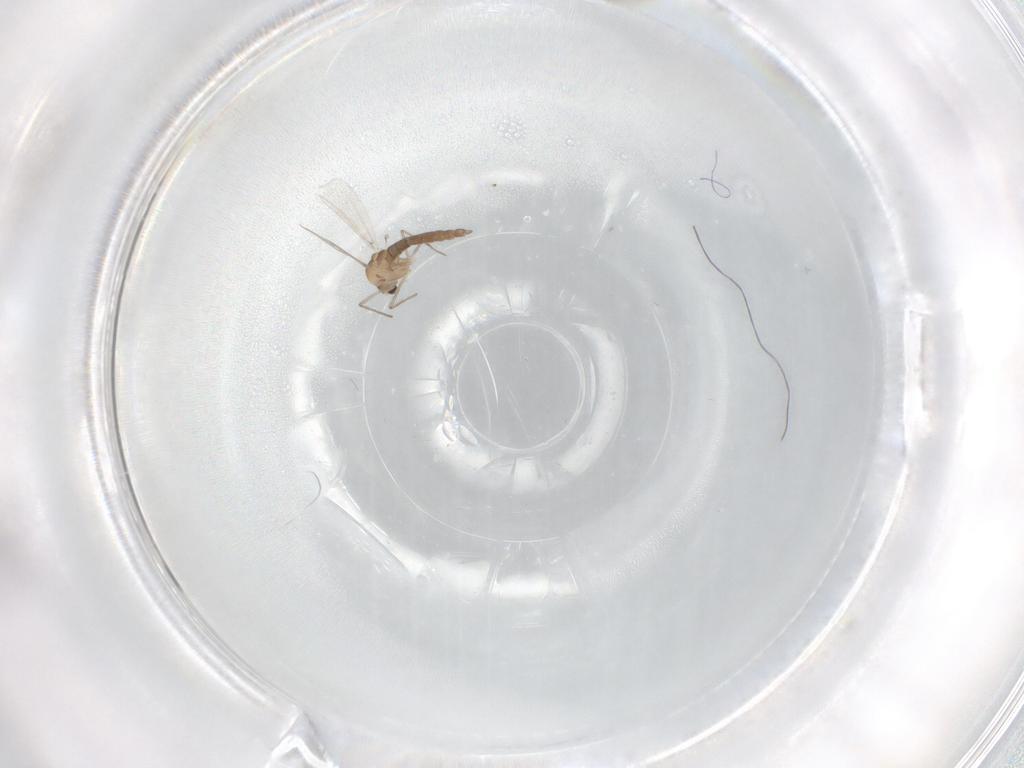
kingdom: Animalia
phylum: Arthropoda
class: Insecta
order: Diptera
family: Chironomidae
